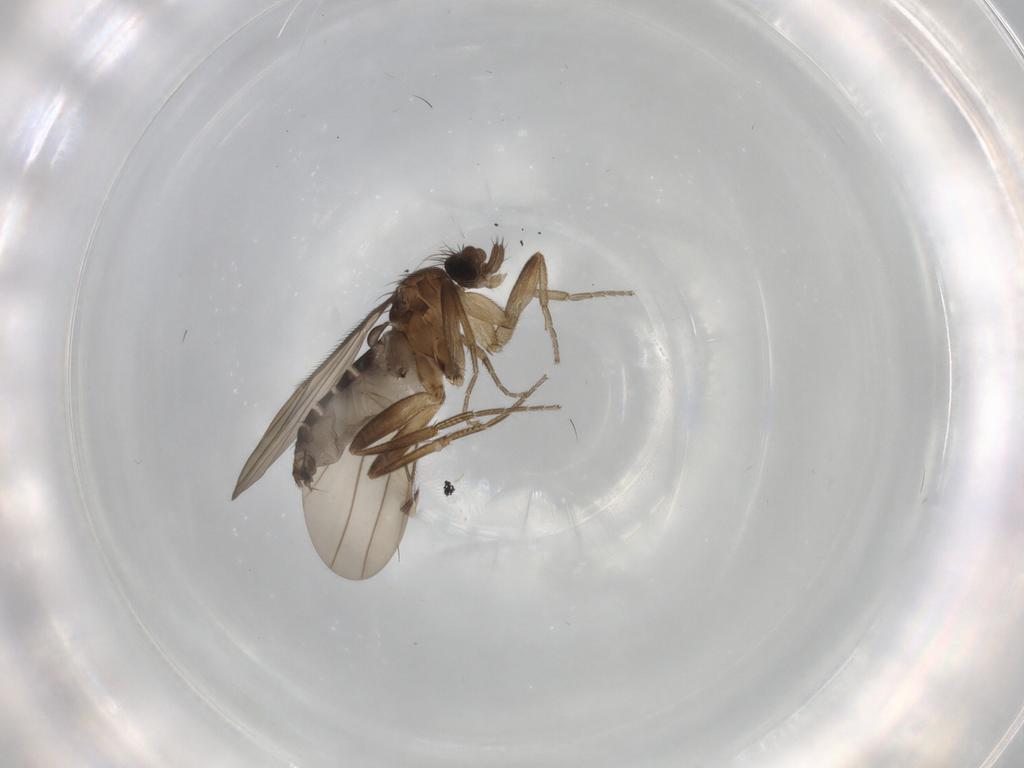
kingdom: Animalia
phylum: Arthropoda
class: Insecta
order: Diptera
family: Phoridae
